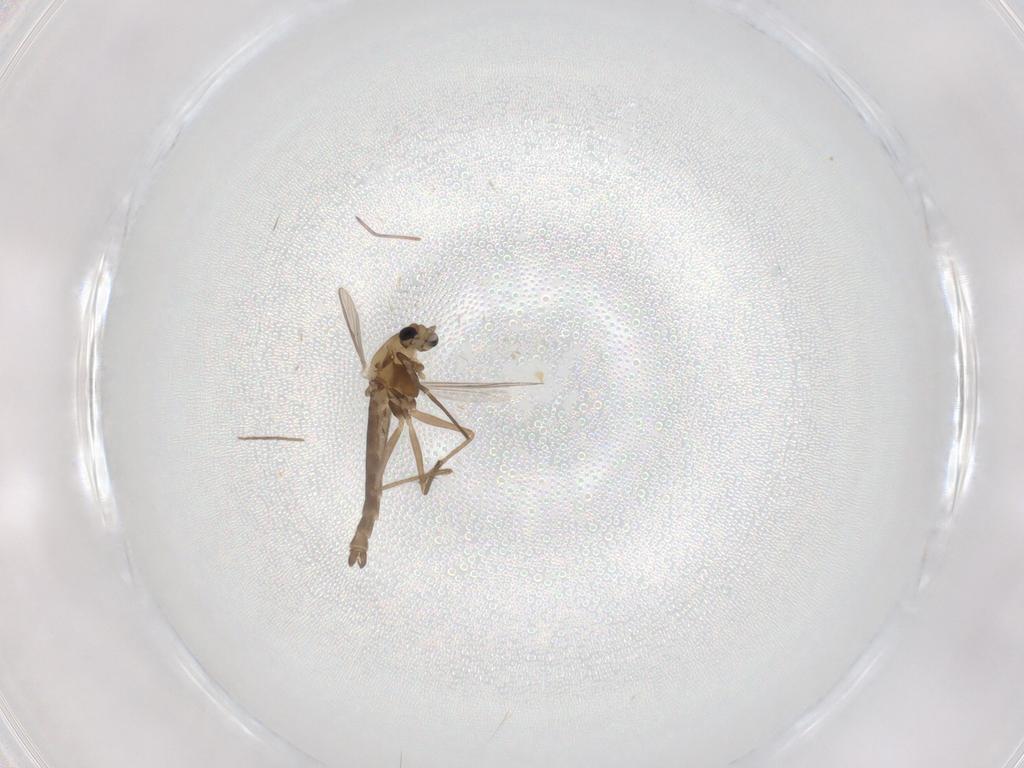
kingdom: Animalia
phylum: Arthropoda
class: Insecta
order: Diptera
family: Chironomidae
